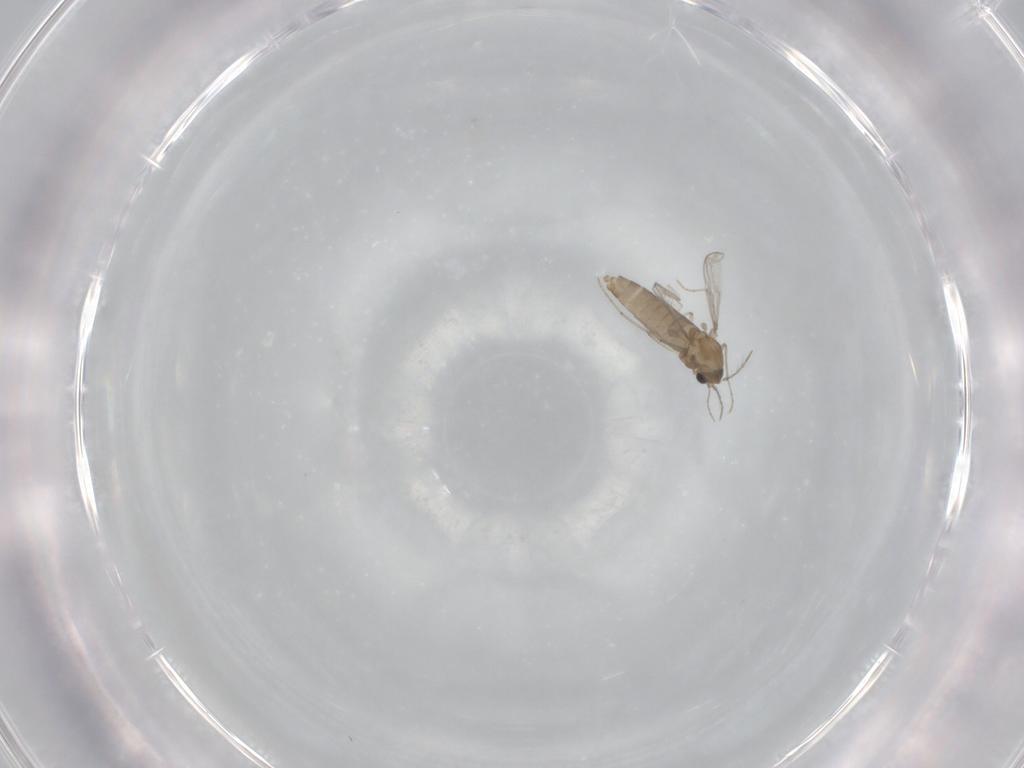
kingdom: Animalia
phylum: Arthropoda
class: Insecta
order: Diptera
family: Chironomidae
